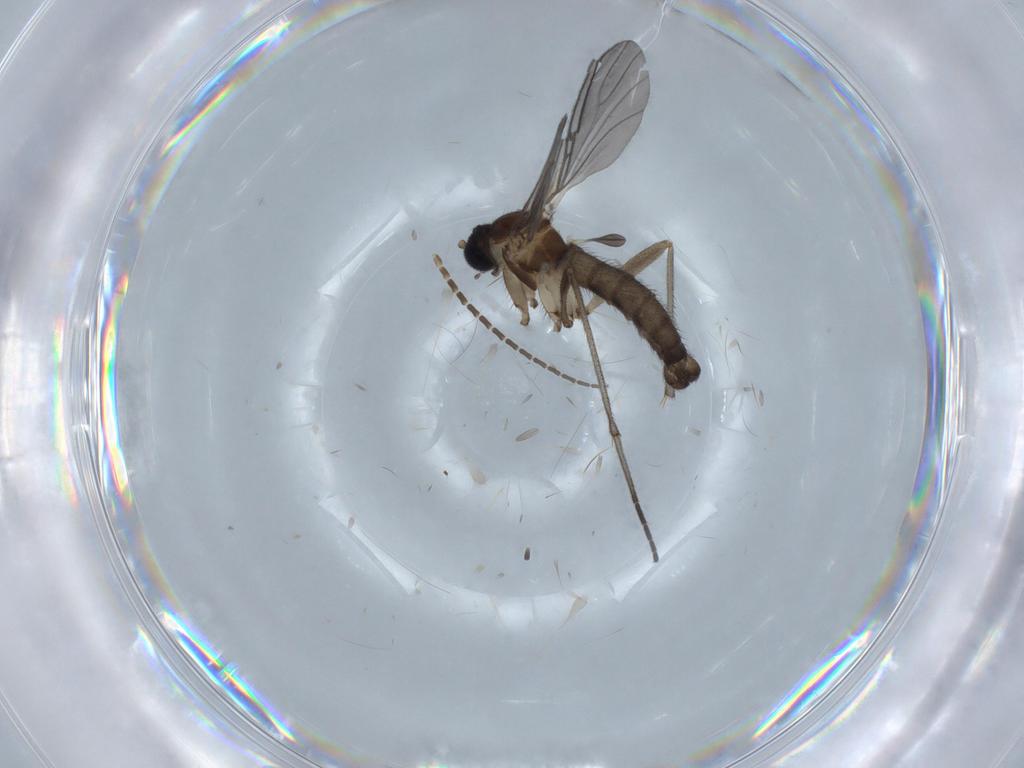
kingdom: Animalia
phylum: Arthropoda
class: Insecta
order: Diptera
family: Sciaridae
